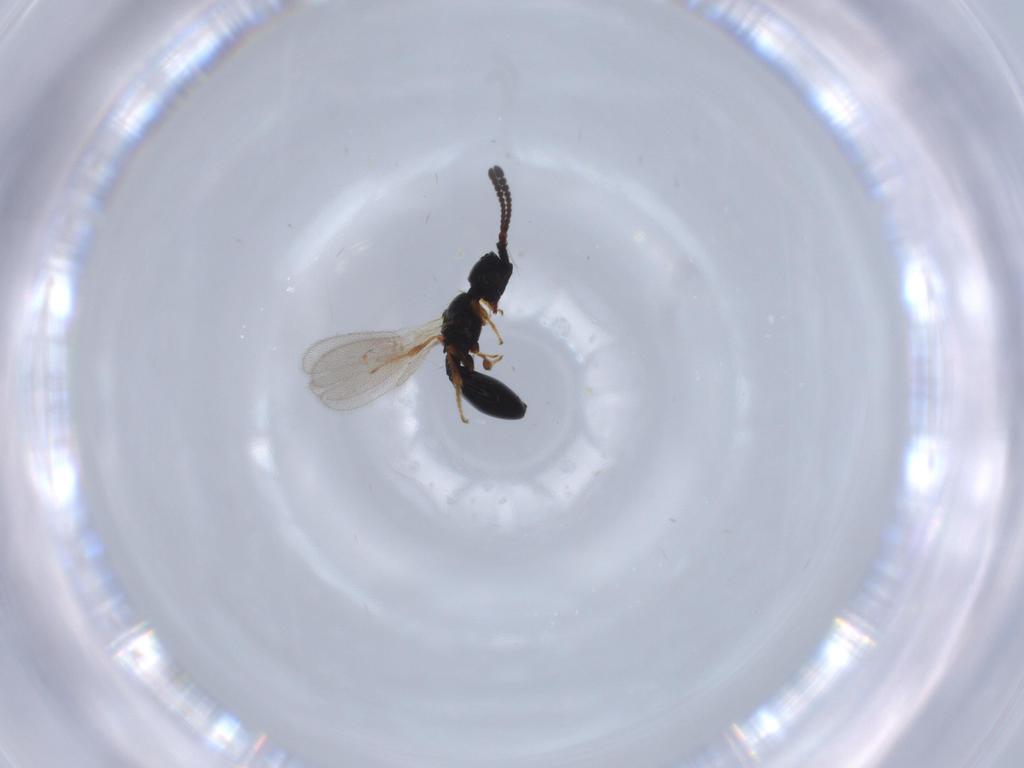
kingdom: Animalia
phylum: Arthropoda
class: Insecta
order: Hymenoptera
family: Diapriidae
